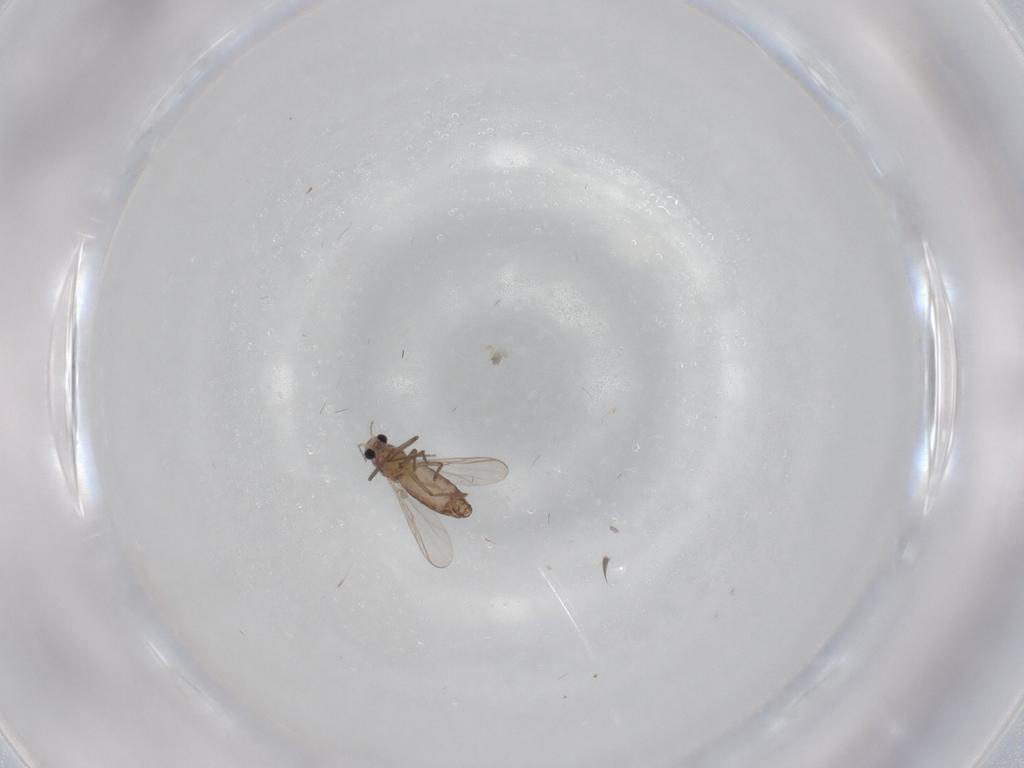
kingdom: Animalia
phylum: Arthropoda
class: Insecta
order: Diptera
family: Chironomidae
